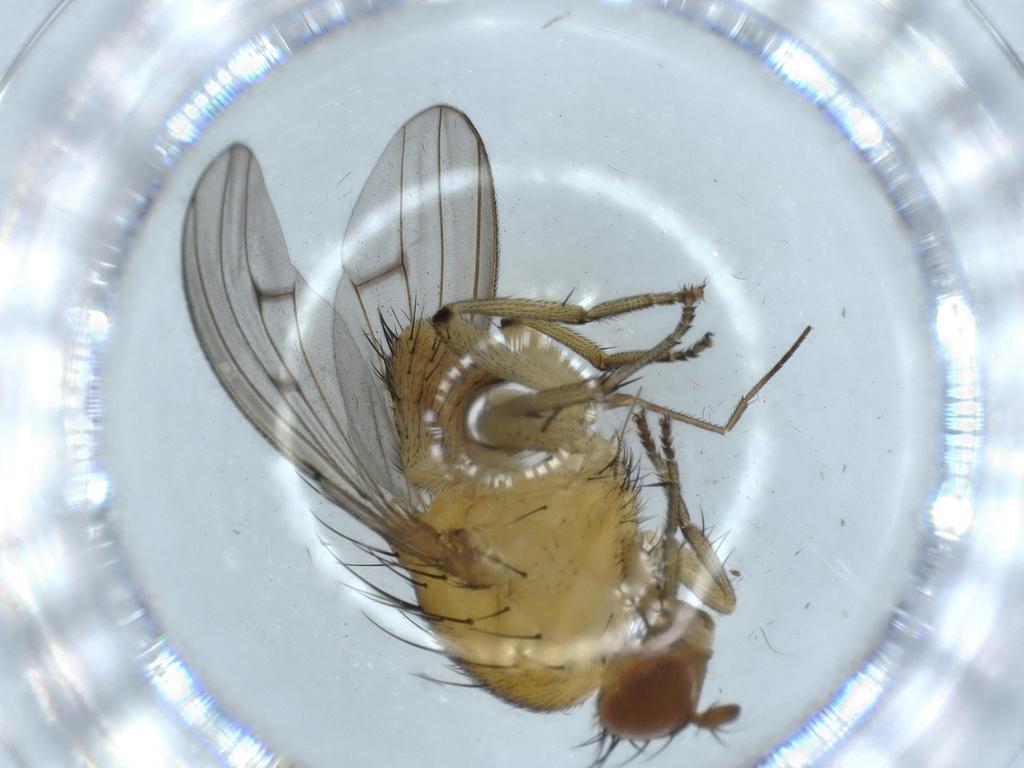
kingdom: Animalia
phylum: Arthropoda
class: Insecta
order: Diptera
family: Sciaridae
